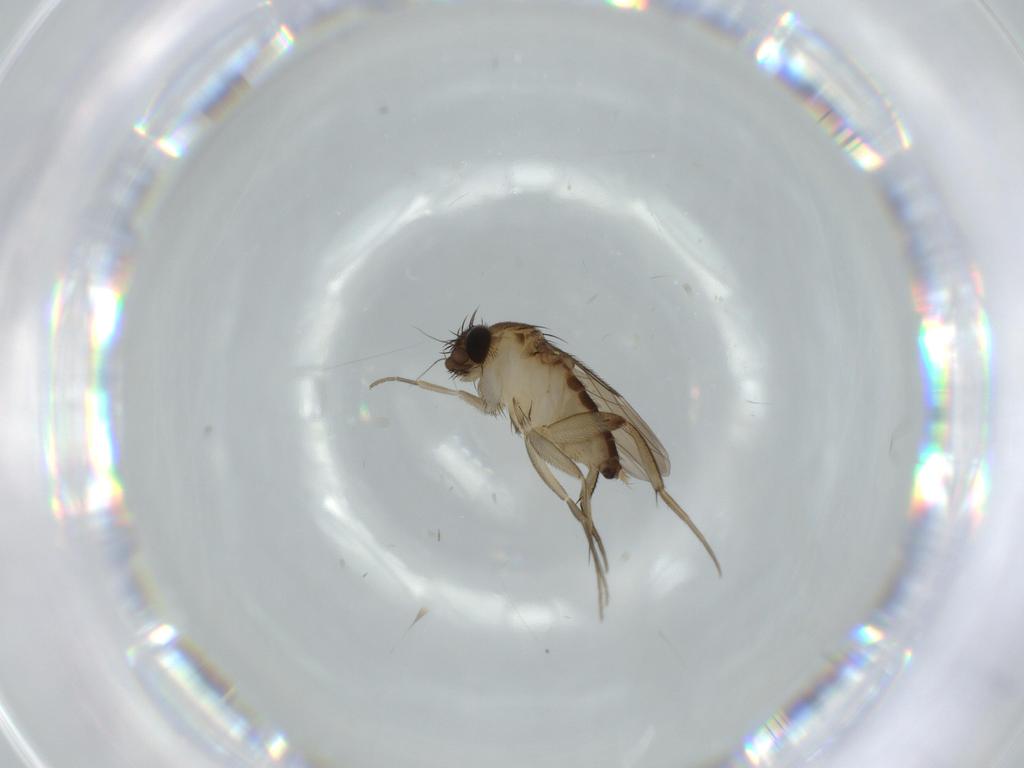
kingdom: Animalia
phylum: Arthropoda
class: Insecta
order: Diptera
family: Phoridae
